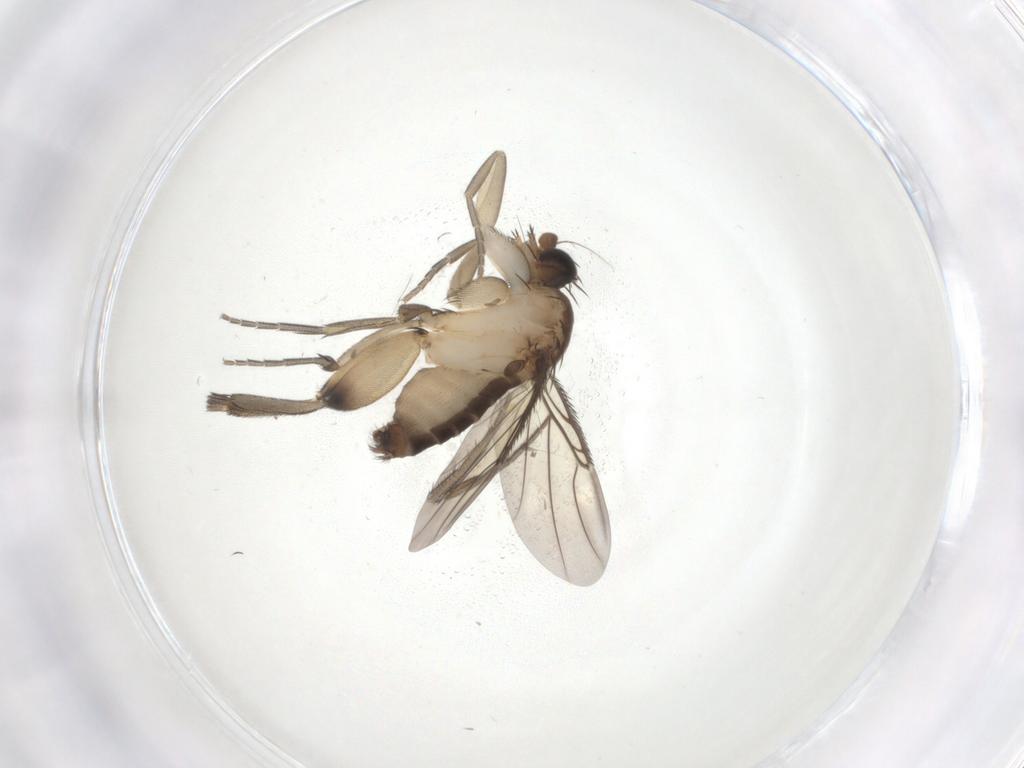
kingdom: Animalia
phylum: Arthropoda
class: Insecta
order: Diptera
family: Phoridae
